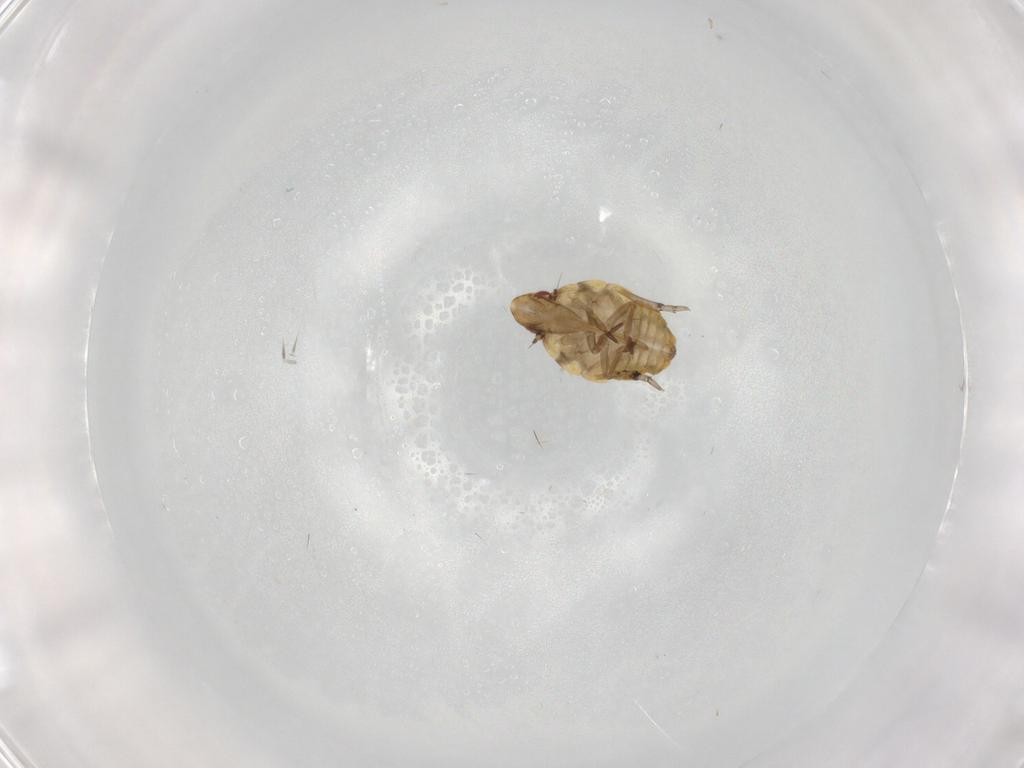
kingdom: Animalia
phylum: Arthropoda
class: Insecta
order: Hemiptera
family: Flatidae
